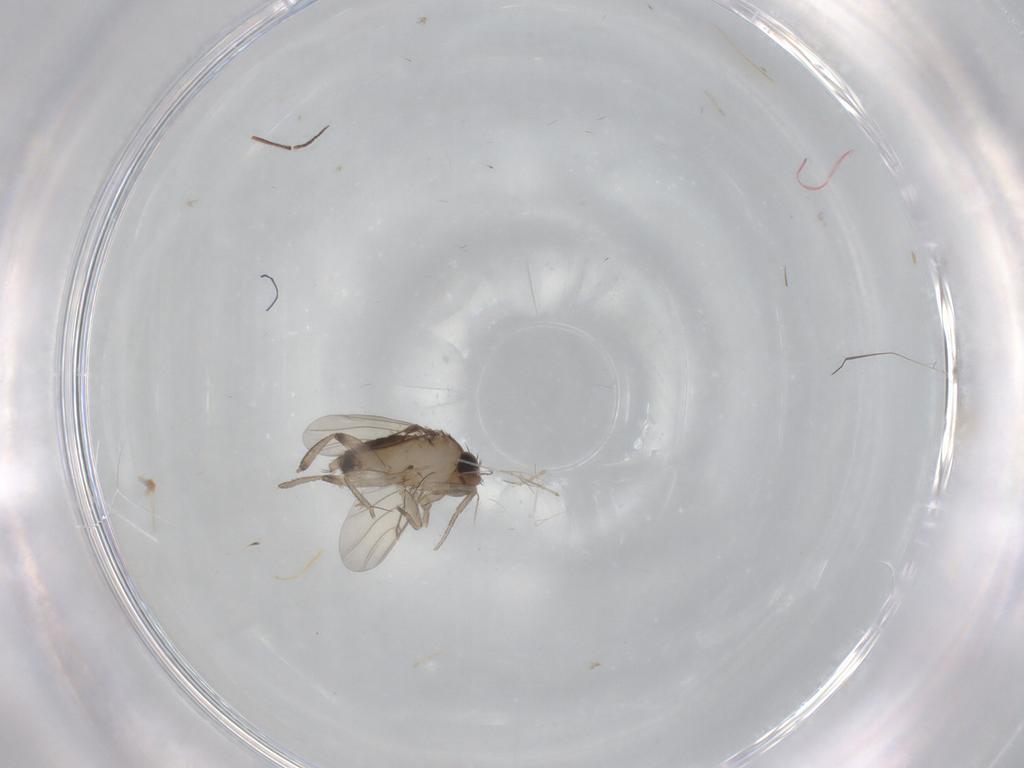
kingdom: Animalia
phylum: Arthropoda
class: Insecta
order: Diptera
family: Phoridae
